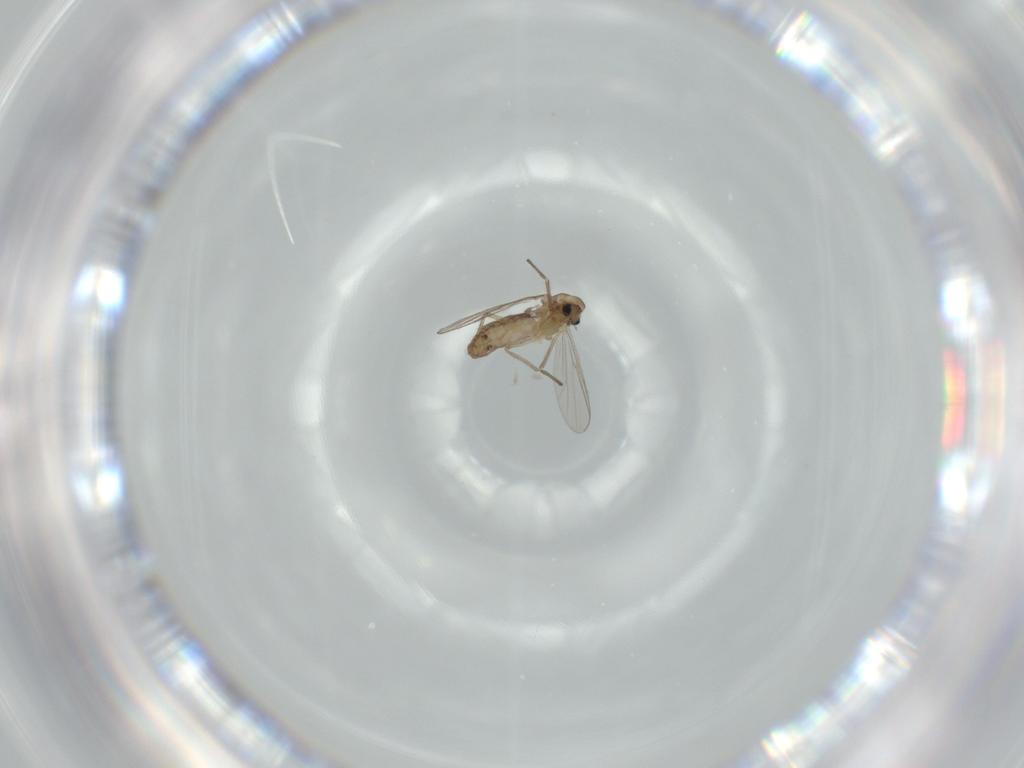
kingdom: Animalia
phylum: Arthropoda
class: Insecta
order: Diptera
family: Chironomidae
